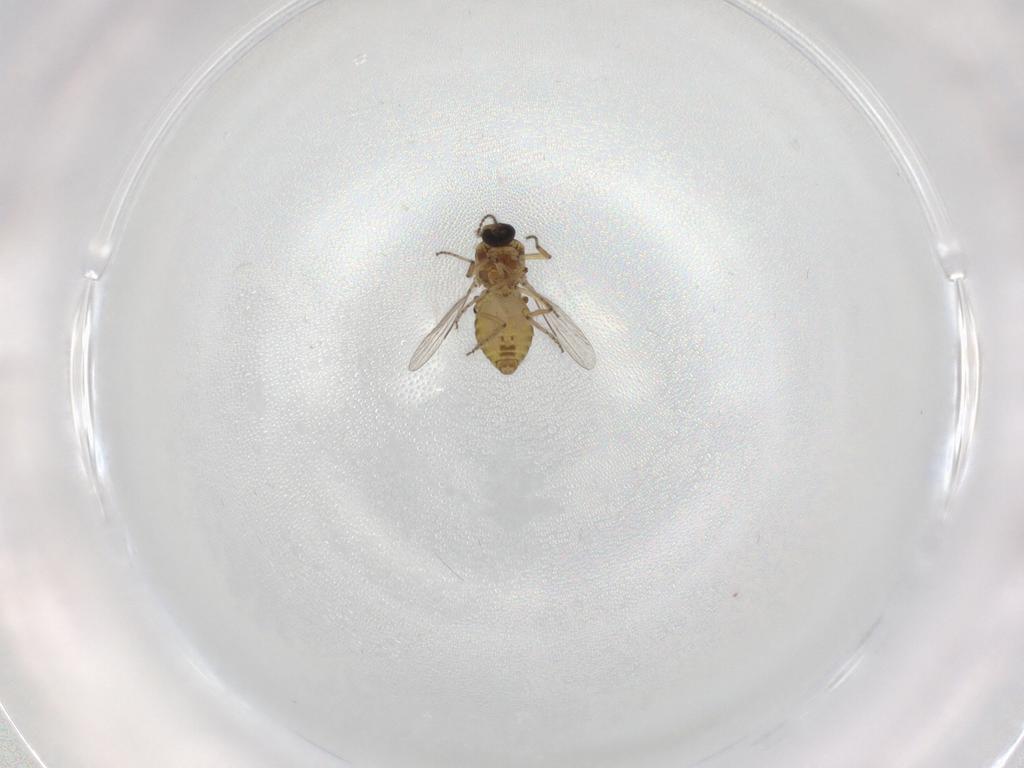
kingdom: Animalia
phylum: Arthropoda
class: Insecta
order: Diptera
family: Ceratopogonidae
